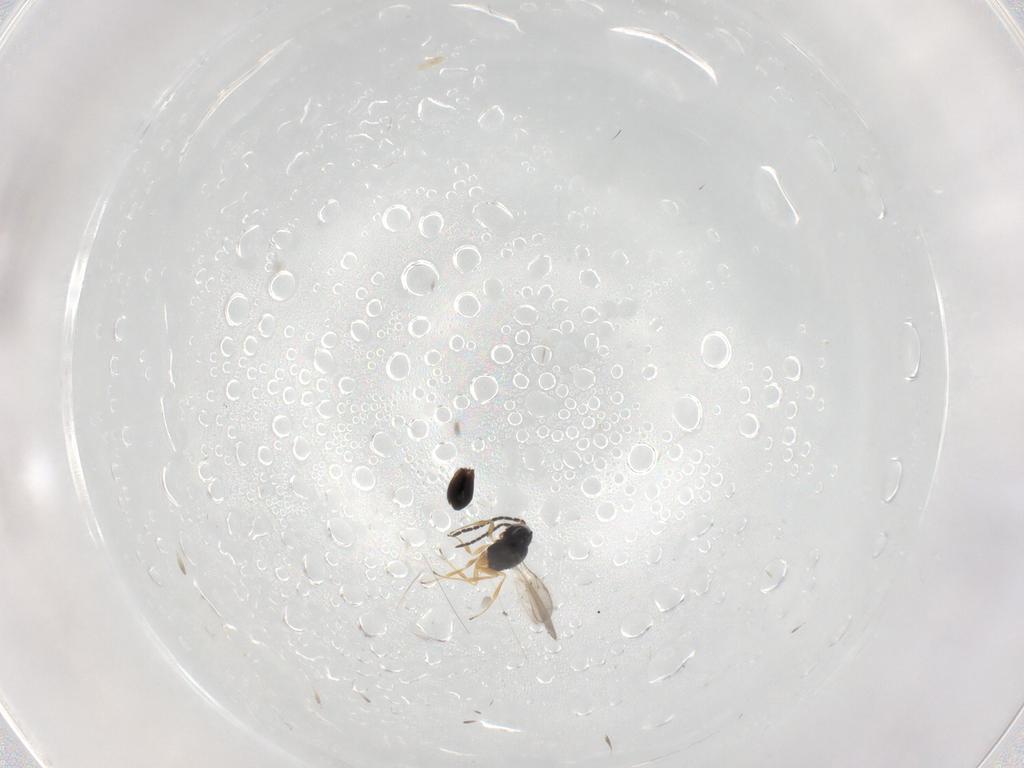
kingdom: Animalia
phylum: Arthropoda
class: Insecta
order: Hymenoptera
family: Scelionidae
